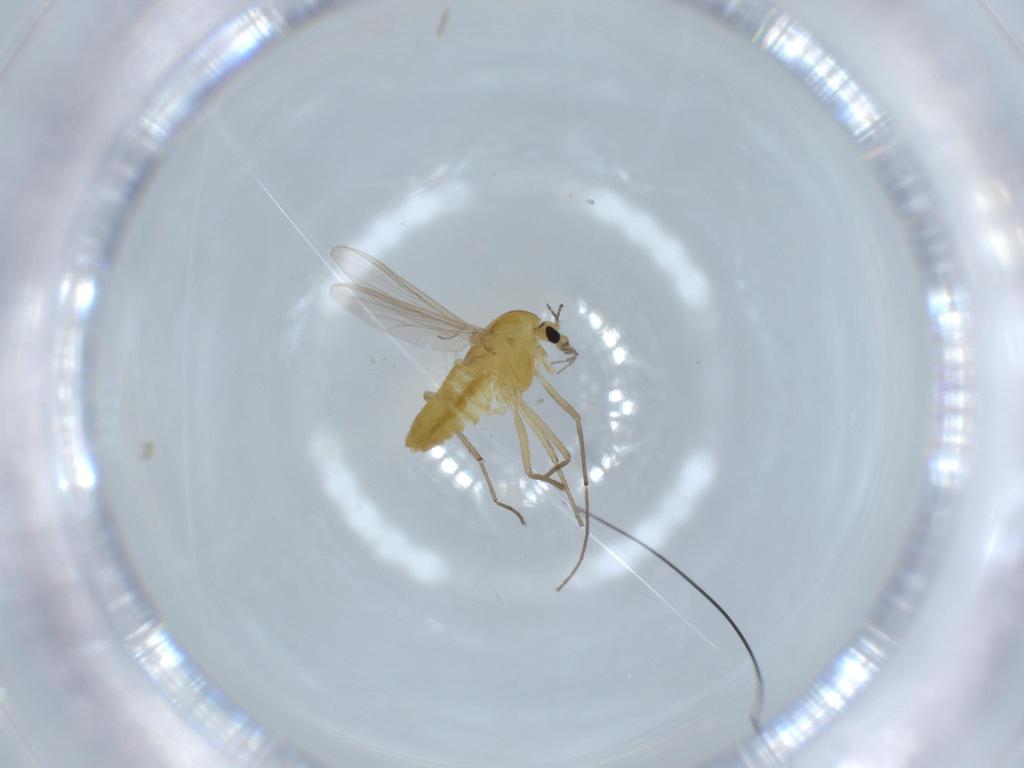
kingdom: Animalia
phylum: Arthropoda
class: Insecta
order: Diptera
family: Chironomidae
